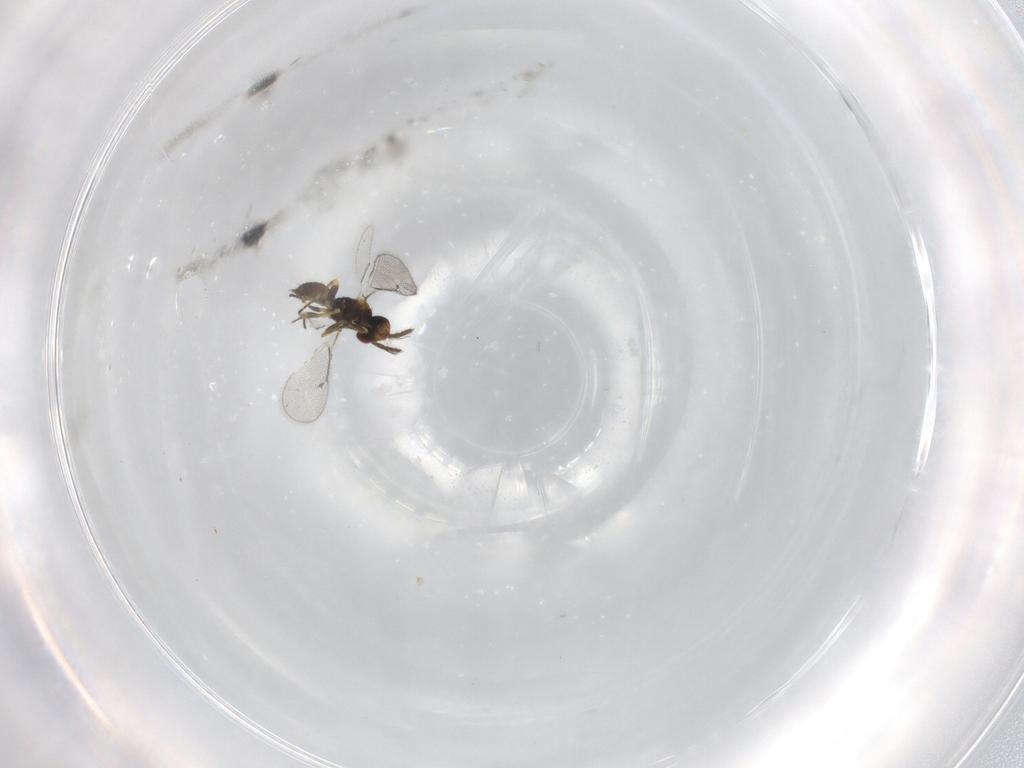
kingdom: Animalia
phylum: Arthropoda
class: Insecta
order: Hymenoptera
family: Eulophidae
